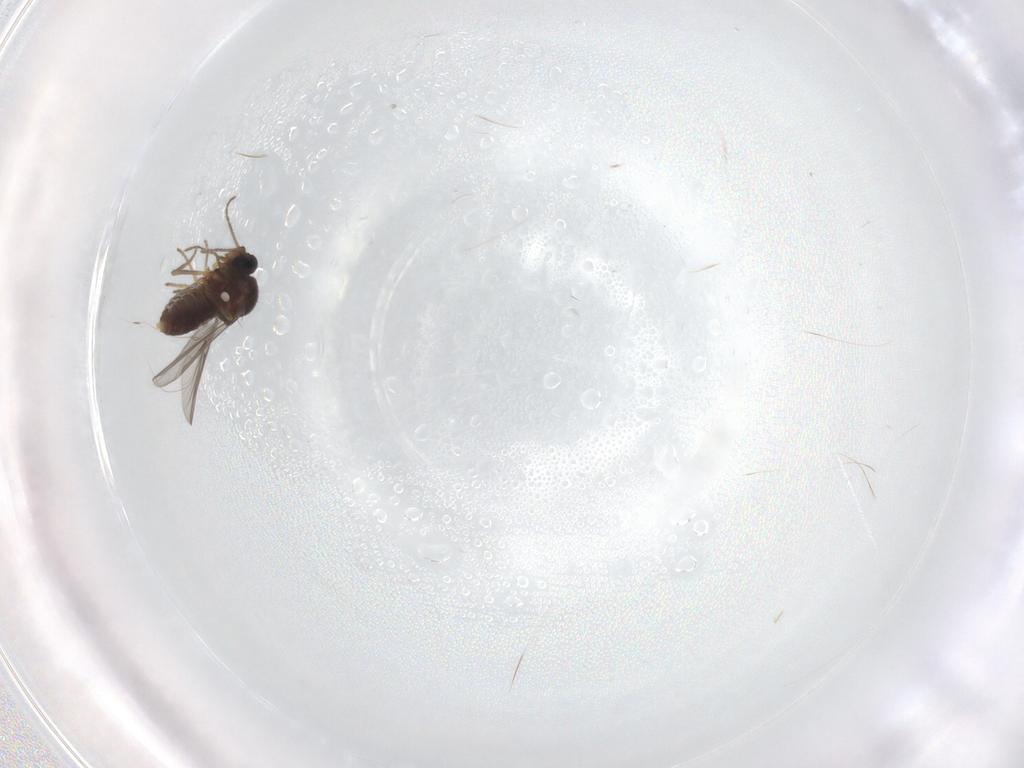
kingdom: Animalia
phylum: Arthropoda
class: Insecta
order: Diptera
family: Ceratopogonidae
